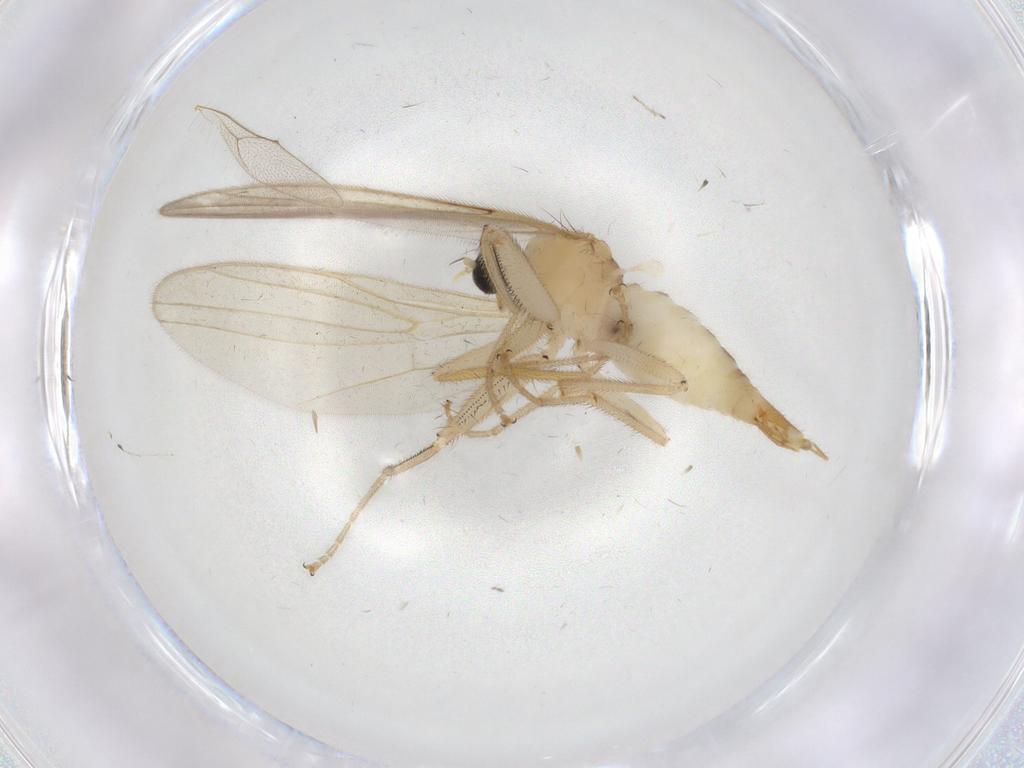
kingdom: Animalia
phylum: Arthropoda
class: Insecta
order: Diptera
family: Hybotidae
